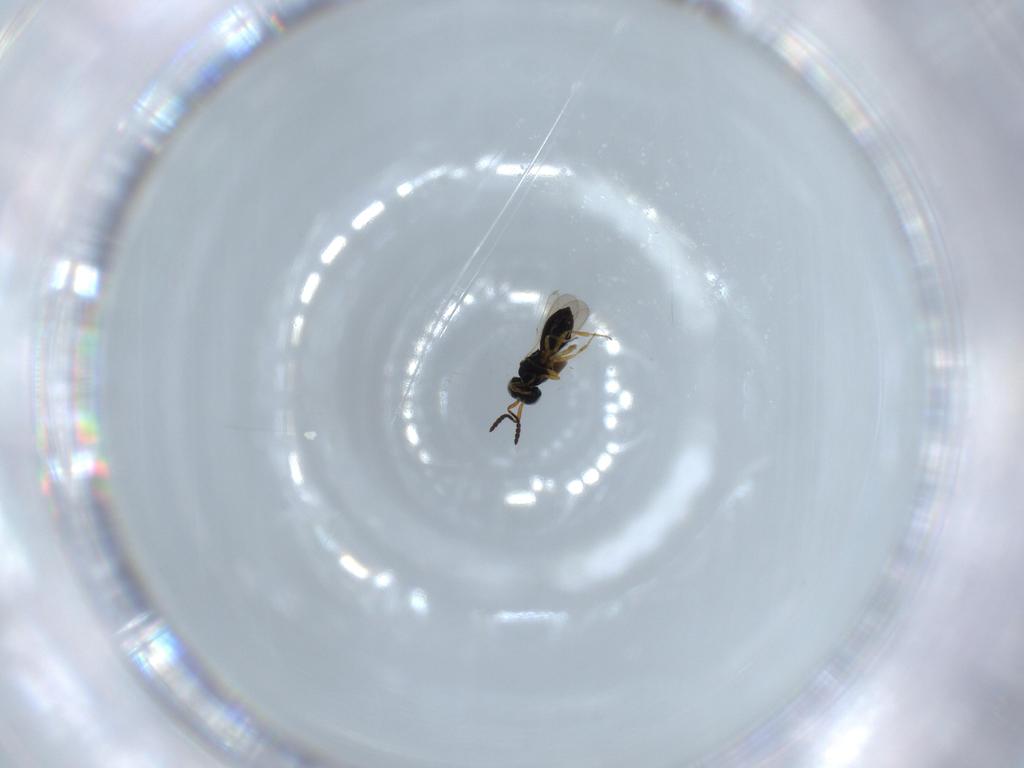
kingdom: Animalia
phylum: Arthropoda
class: Insecta
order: Hymenoptera
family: Scelionidae
